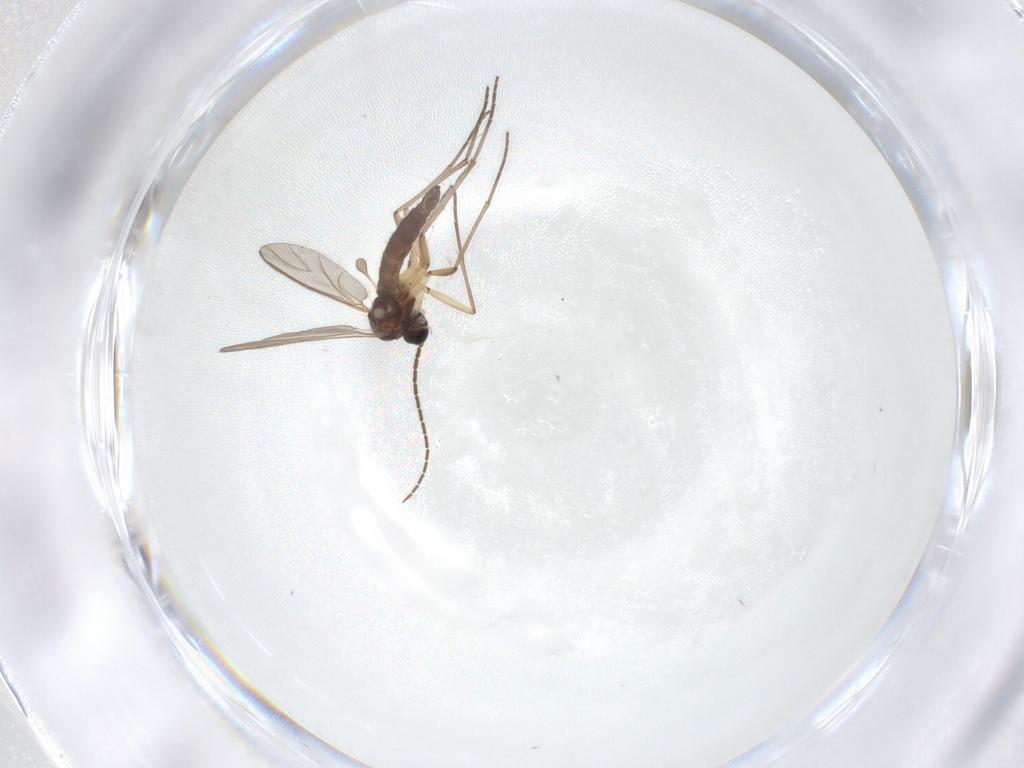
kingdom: Animalia
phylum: Arthropoda
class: Insecta
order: Diptera
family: Sciaridae
